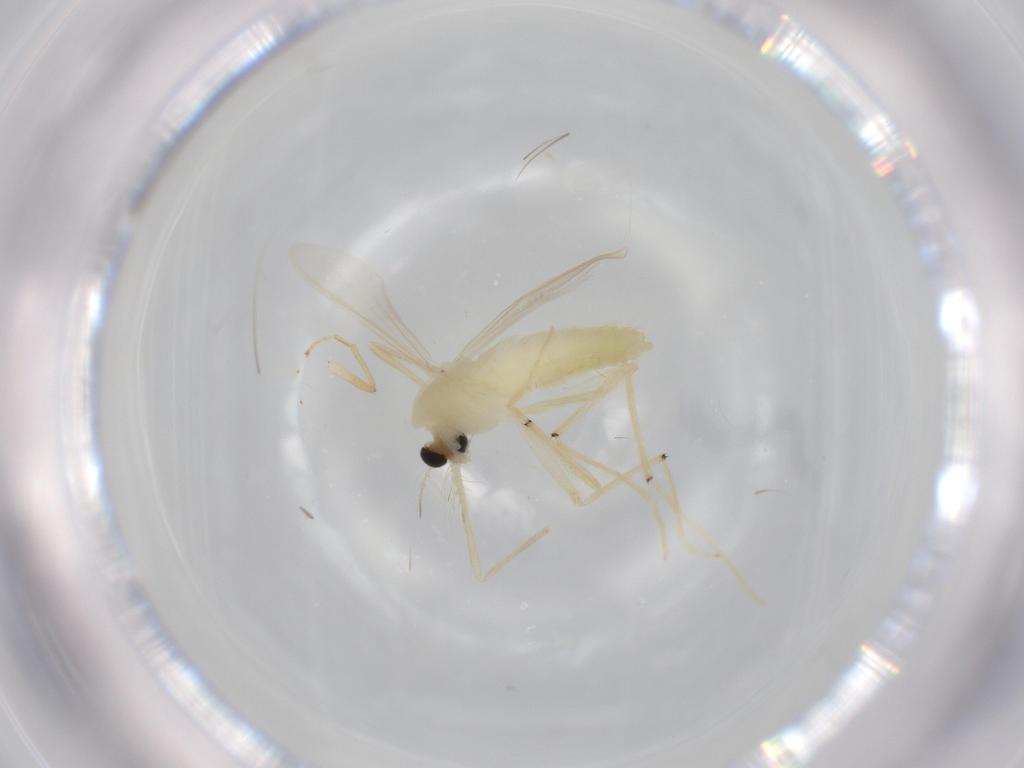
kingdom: Animalia
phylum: Arthropoda
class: Insecta
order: Diptera
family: Chironomidae
